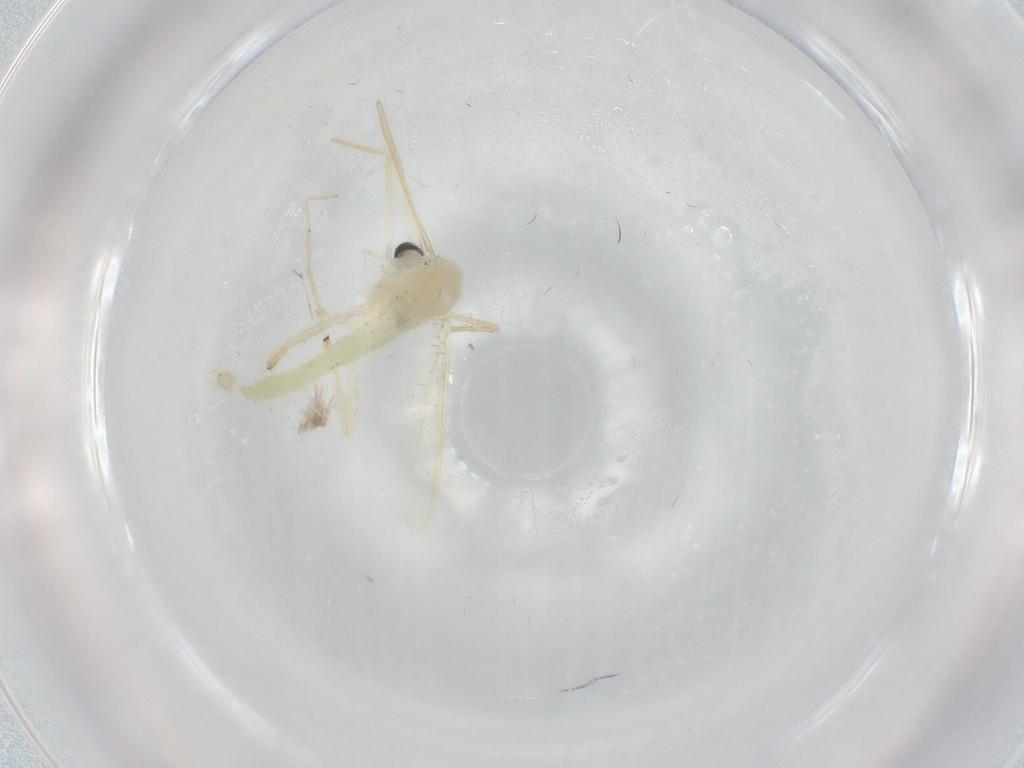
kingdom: Animalia
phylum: Arthropoda
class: Insecta
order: Diptera
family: Chironomidae
